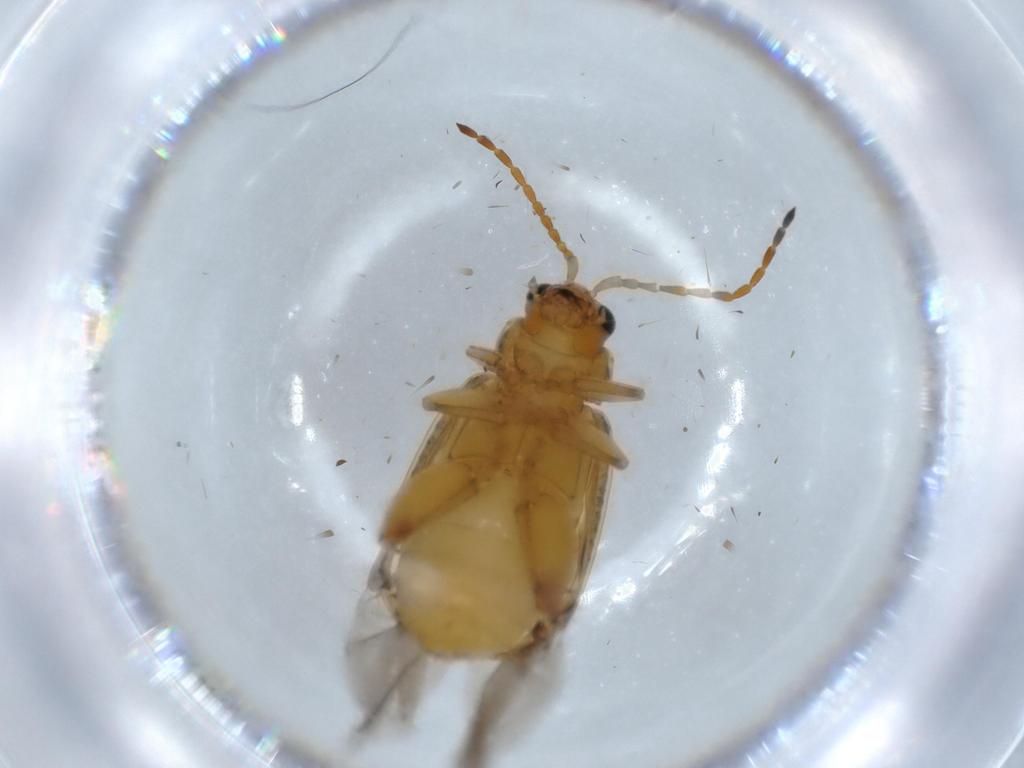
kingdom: Animalia
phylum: Arthropoda
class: Insecta
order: Coleoptera
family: Chrysomelidae
